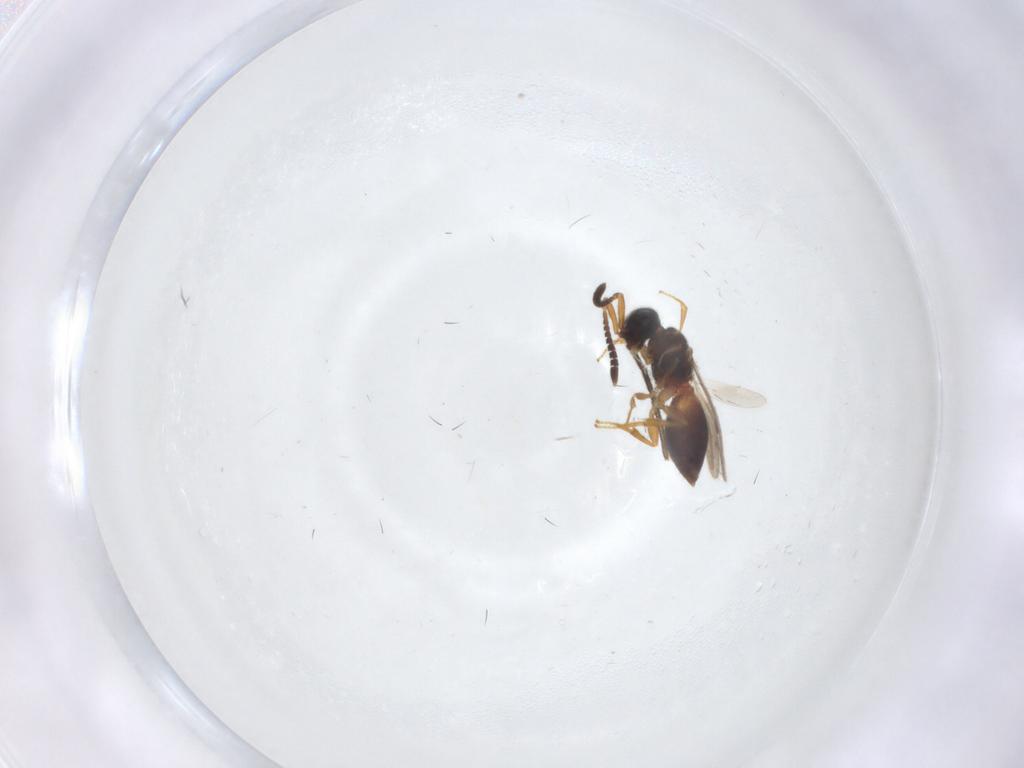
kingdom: Animalia
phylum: Arthropoda
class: Insecta
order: Hymenoptera
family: Megaspilidae
